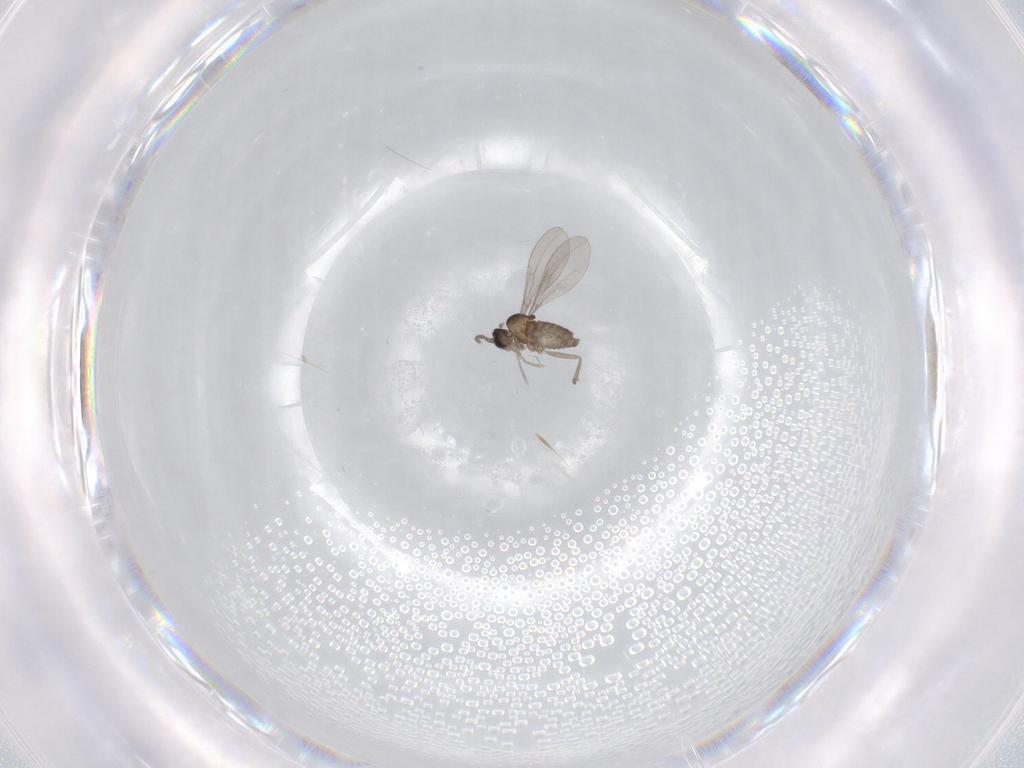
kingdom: Animalia
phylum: Arthropoda
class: Insecta
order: Diptera
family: Cecidomyiidae
